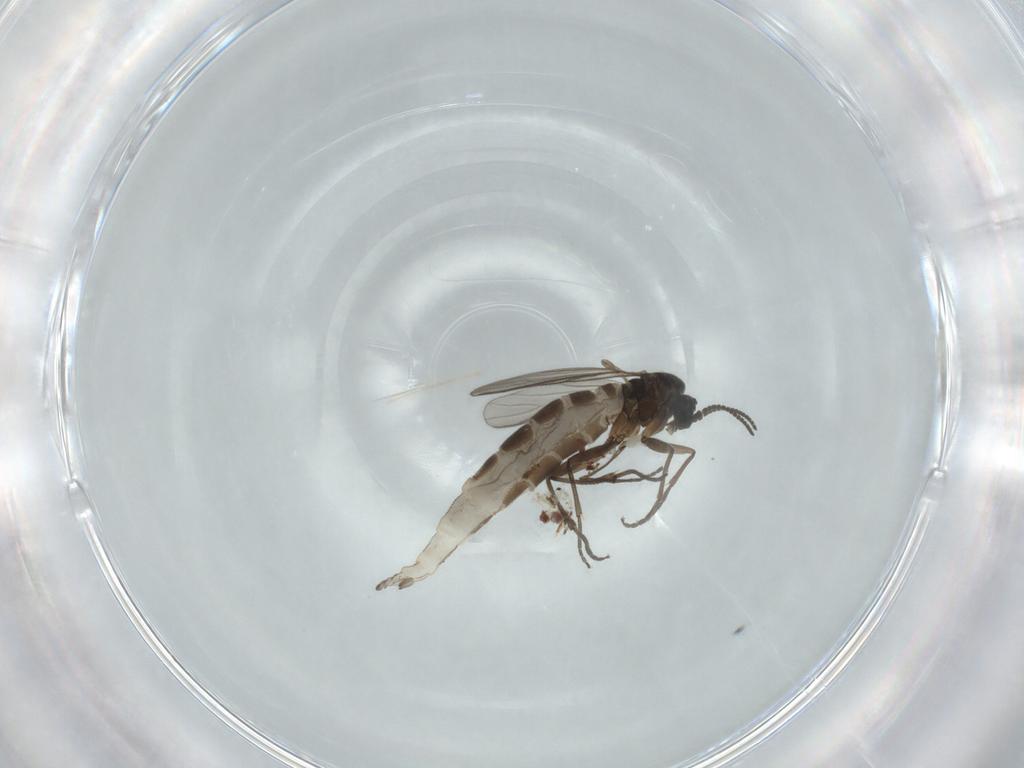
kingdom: Animalia
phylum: Arthropoda
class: Insecta
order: Diptera
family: Sciaridae
